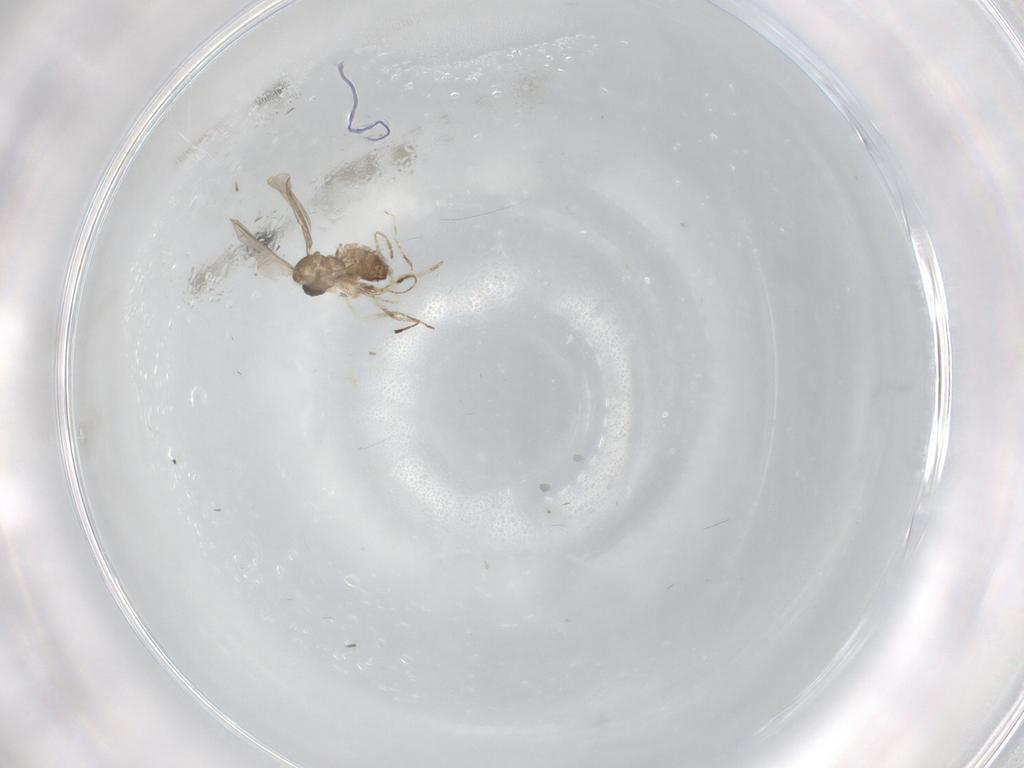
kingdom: Animalia
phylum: Arthropoda
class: Insecta
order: Diptera
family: Psychodidae
